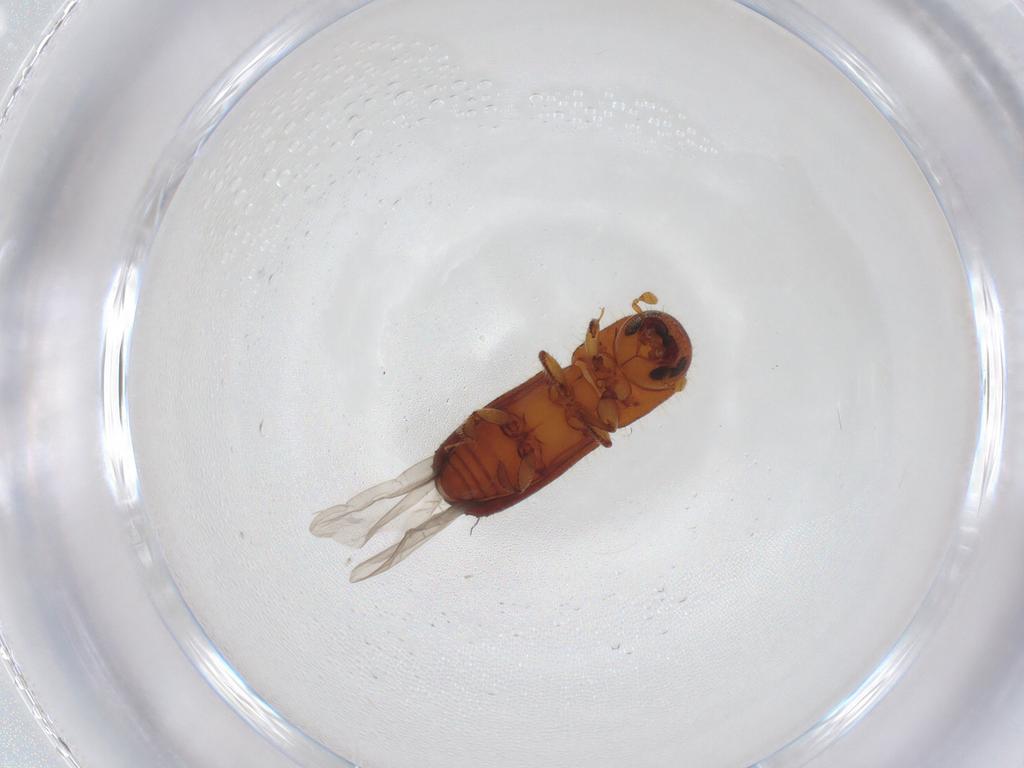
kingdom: Animalia
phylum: Arthropoda
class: Insecta
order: Coleoptera
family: Curculionidae
